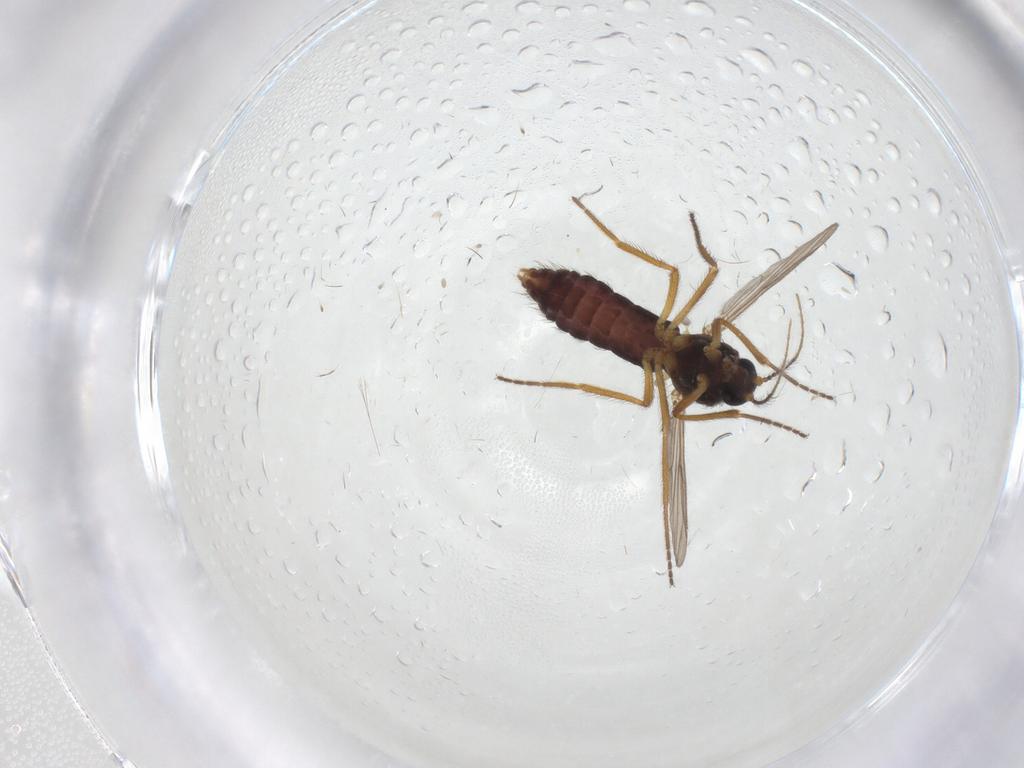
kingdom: Animalia
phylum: Arthropoda
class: Insecta
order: Diptera
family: Ceratopogonidae
